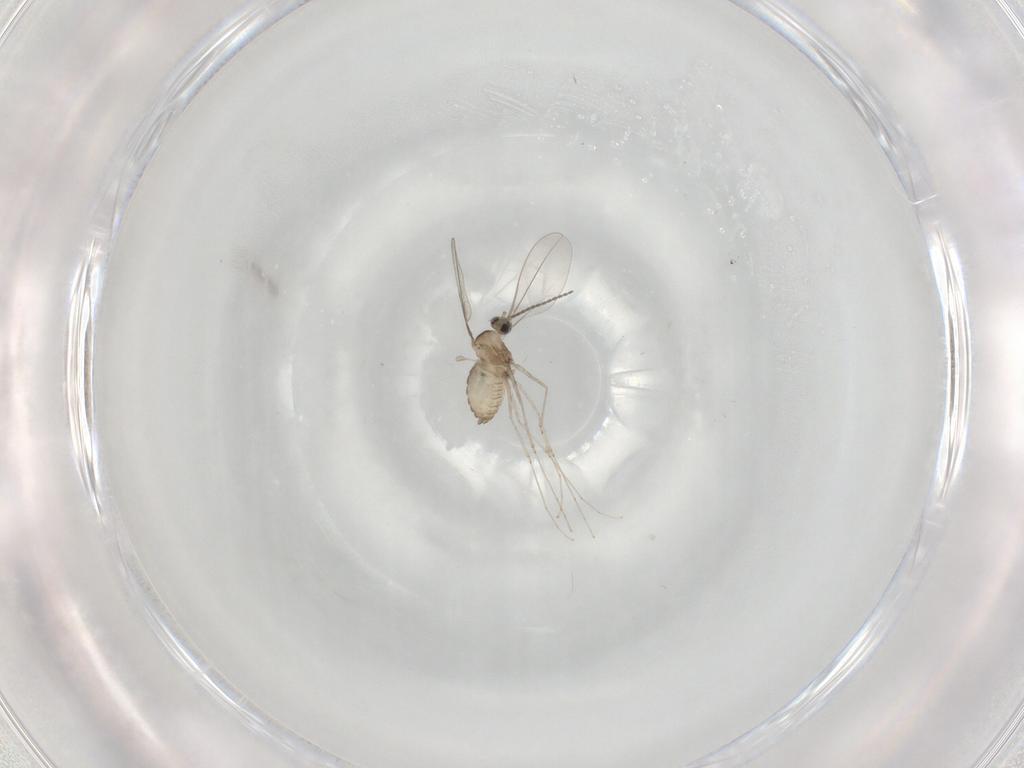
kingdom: Animalia
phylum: Arthropoda
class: Insecta
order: Diptera
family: Cecidomyiidae
